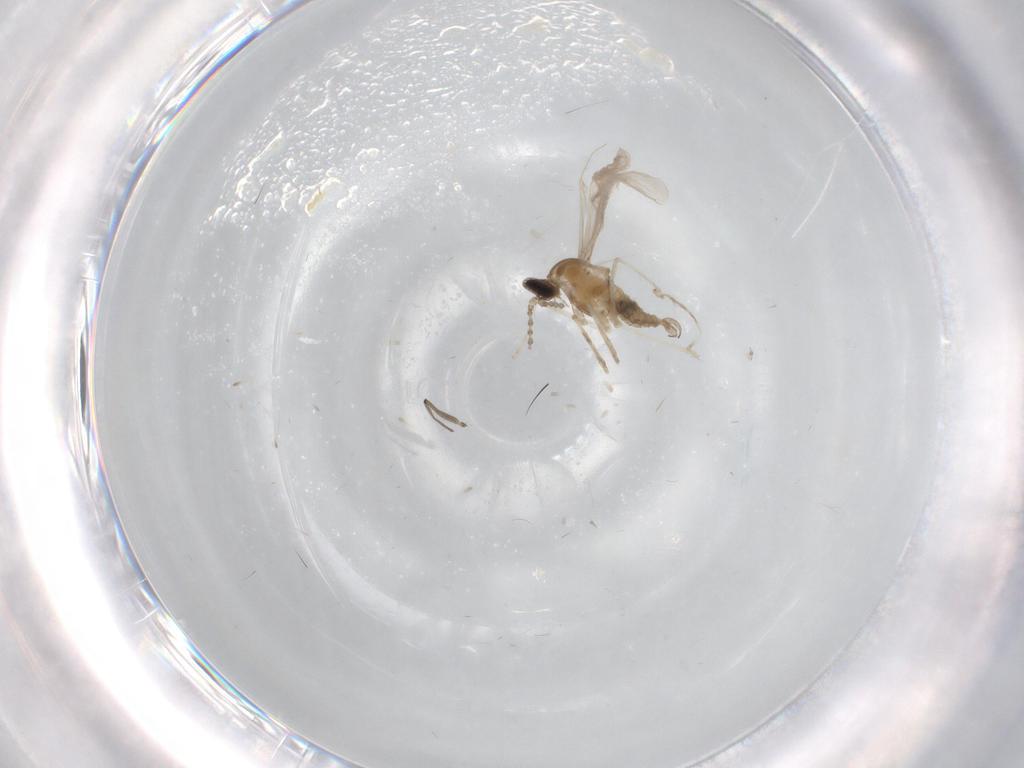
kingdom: Animalia
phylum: Arthropoda
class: Insecta
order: Diptera
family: Cecidomyiidae
